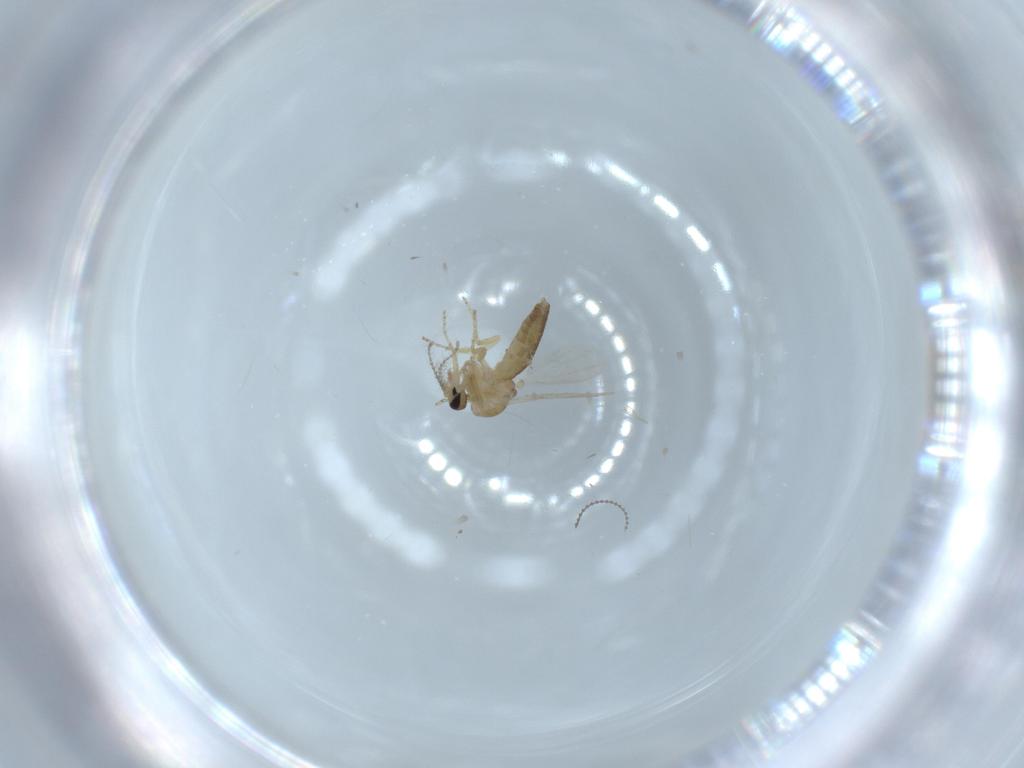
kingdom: Animalia
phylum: Arthropoda
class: Insecta
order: Diptera
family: Ceratopogonidae
